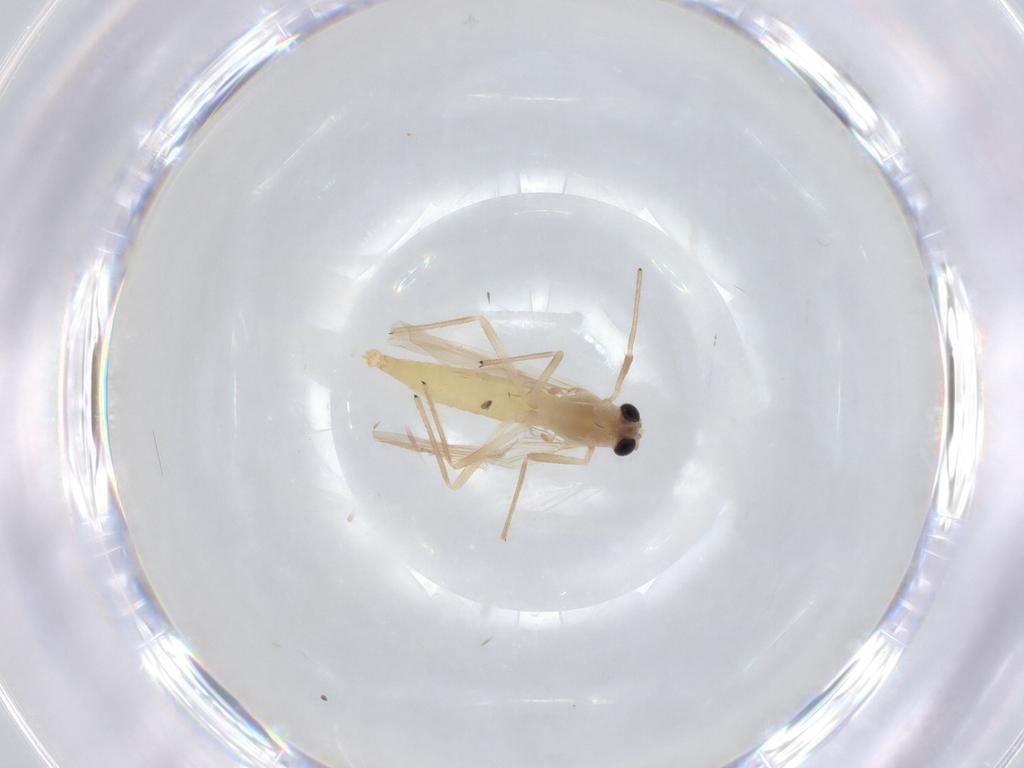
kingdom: Animalia
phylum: Arthropoda
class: Insecta
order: Diptera
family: Chironomidae
